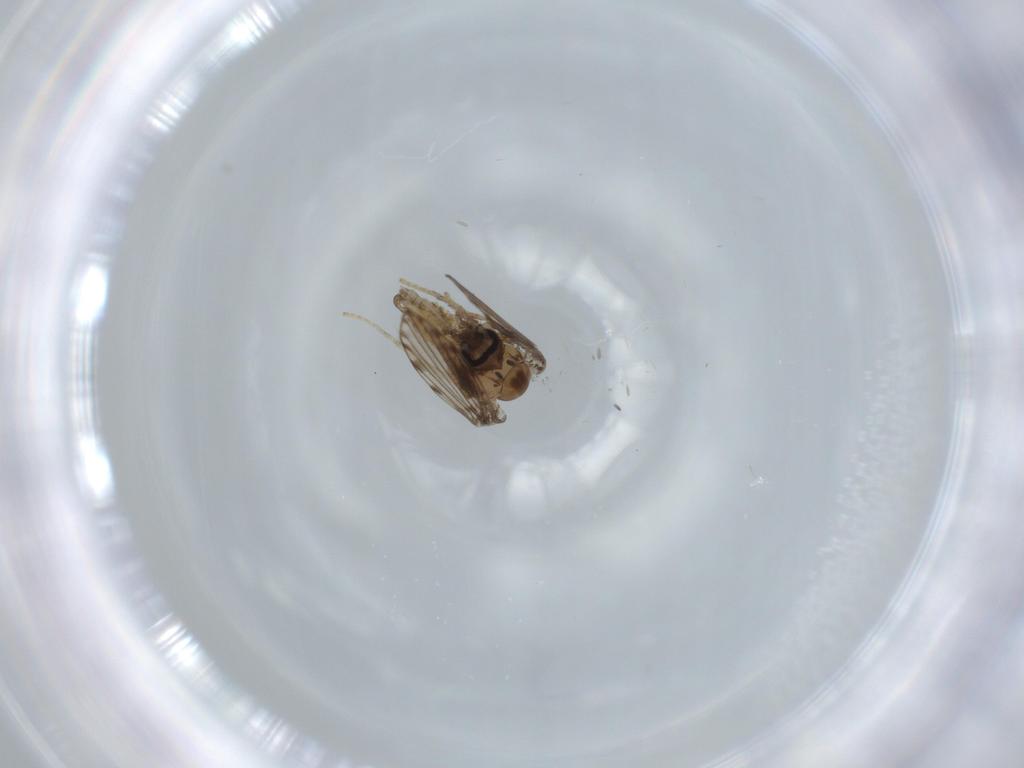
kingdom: Animalia
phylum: Arthropoda
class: Insecta
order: Diptera
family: Psychodidae
